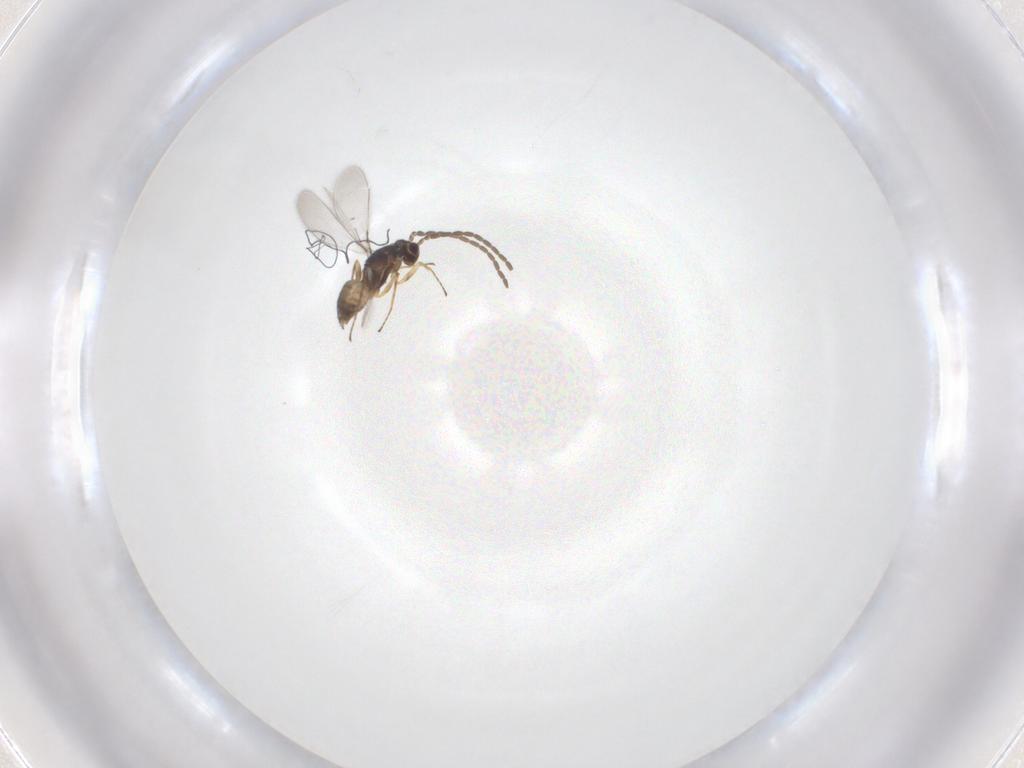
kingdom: Animalia
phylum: Arthropoda
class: Insecta
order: Hymenoptera
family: Mymaridae
